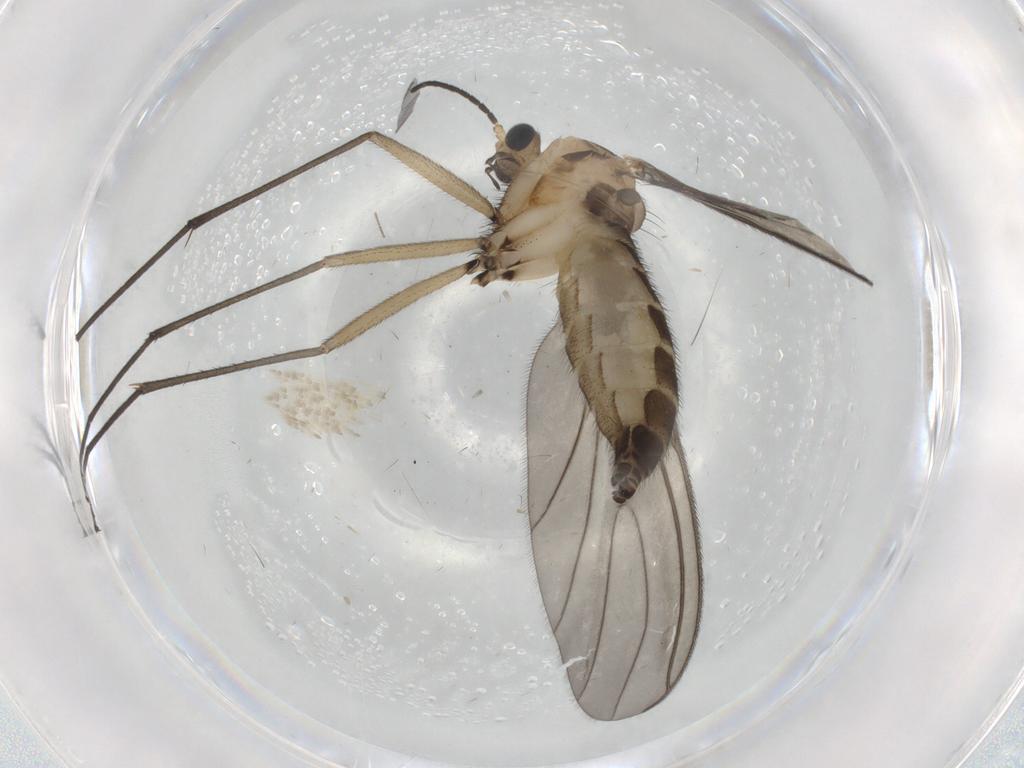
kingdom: Animalia
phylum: Arthropoda
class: Insecta
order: Diptera
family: Sciaridae
